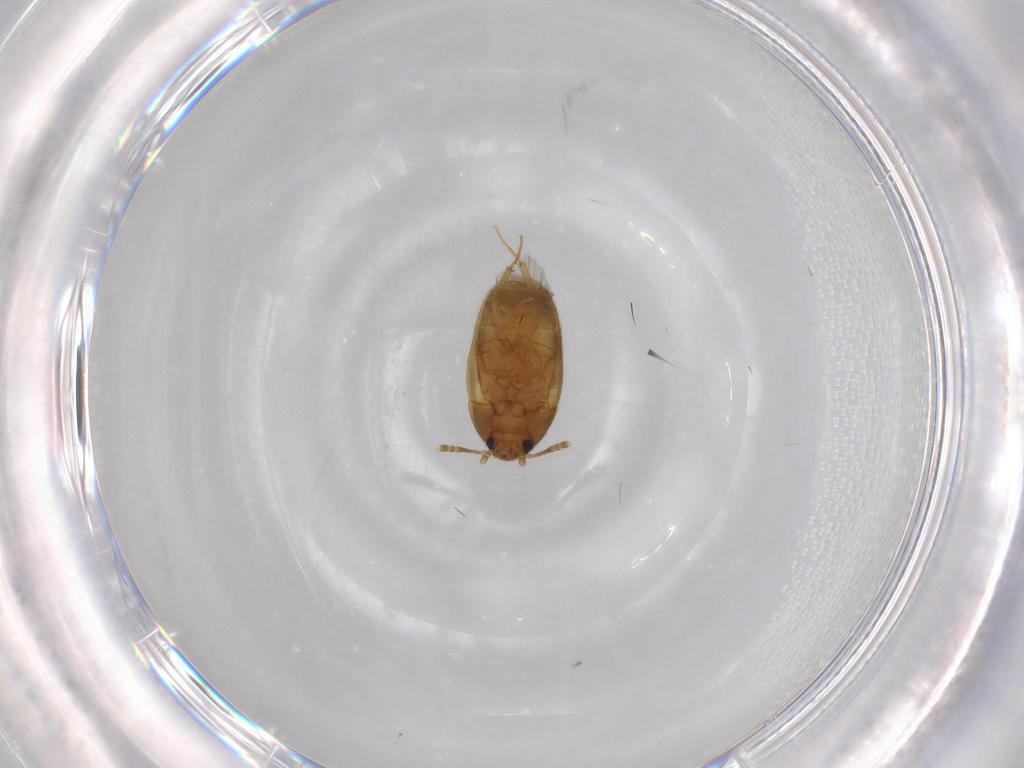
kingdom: Animalia
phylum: Arthropoda
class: Insecta
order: Coleoptera
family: Mycetophagidae
